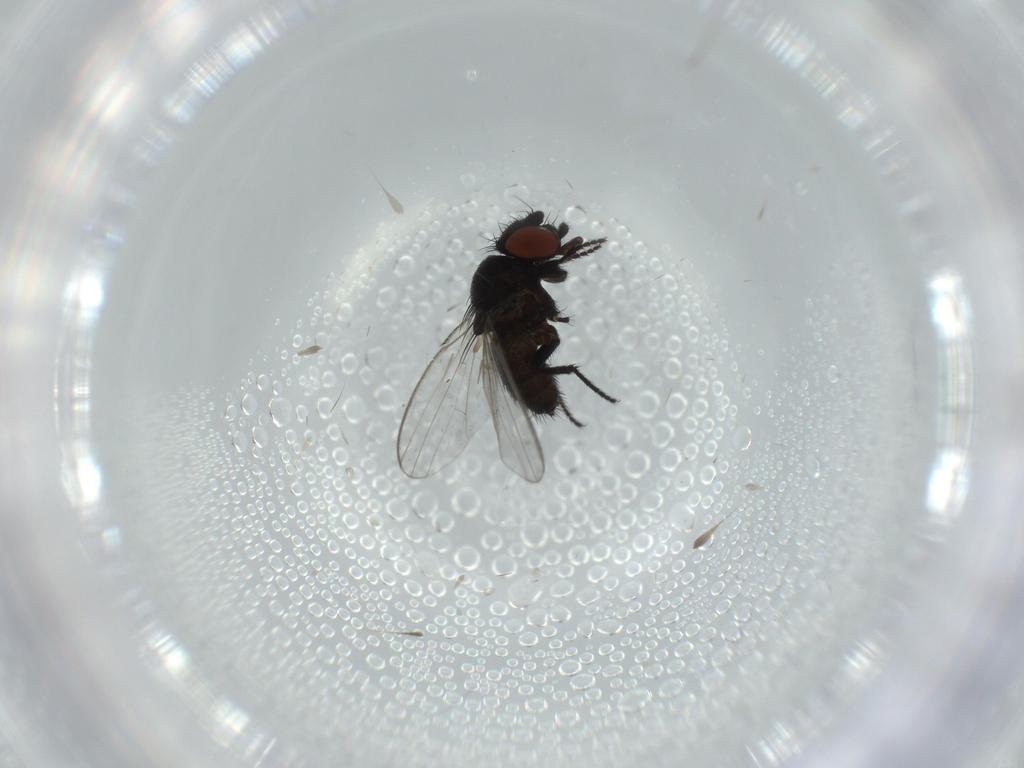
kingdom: Animalia
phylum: Arthropoda
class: Insecta
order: Diptera
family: Milichiidae
